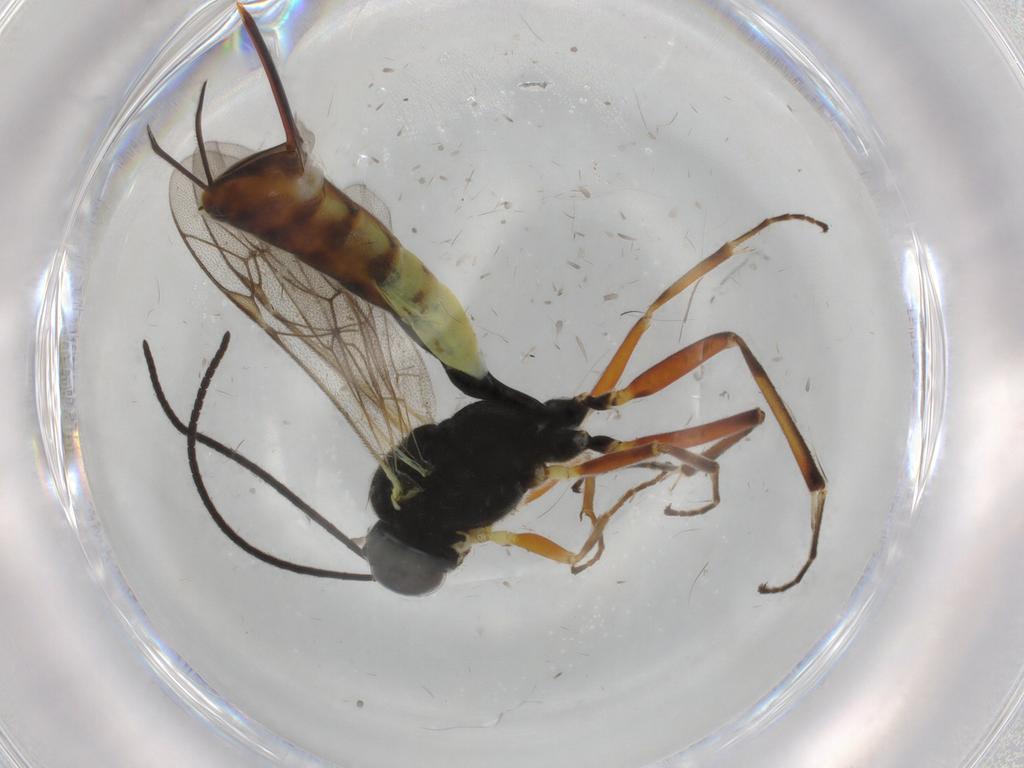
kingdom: Animalia
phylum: Arthropoda
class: Insecta
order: Hymenoptera
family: Ichneumonidae
